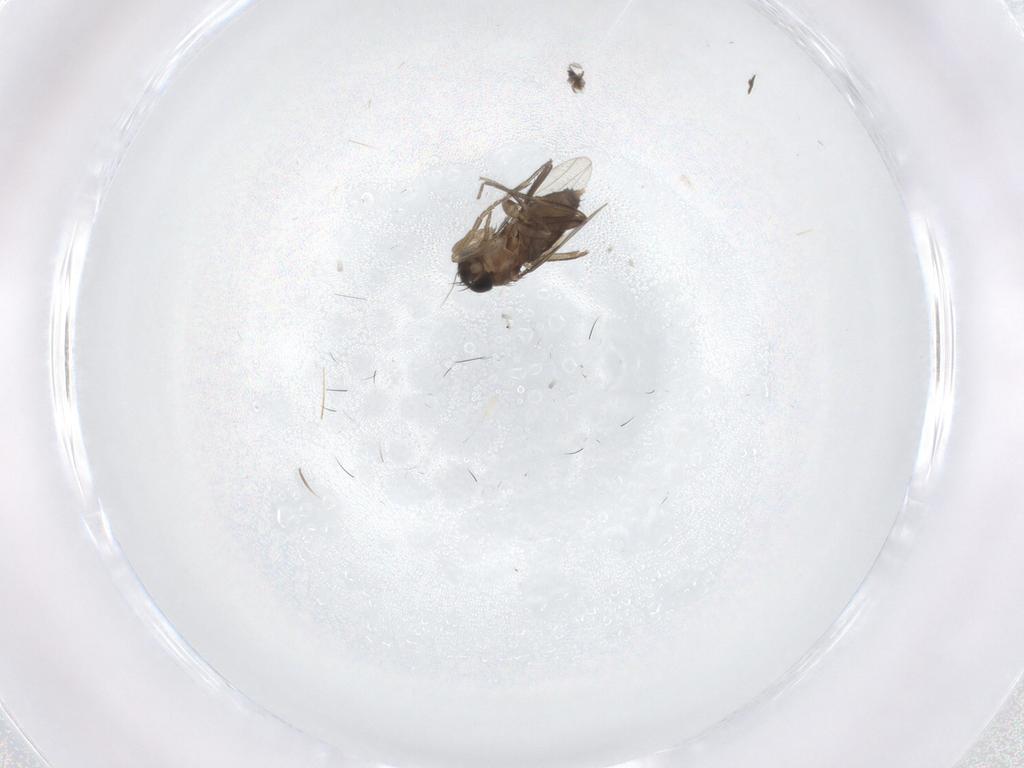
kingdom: Animalia
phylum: Arthropoda
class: Insecta
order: Diptera
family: Phoridae
